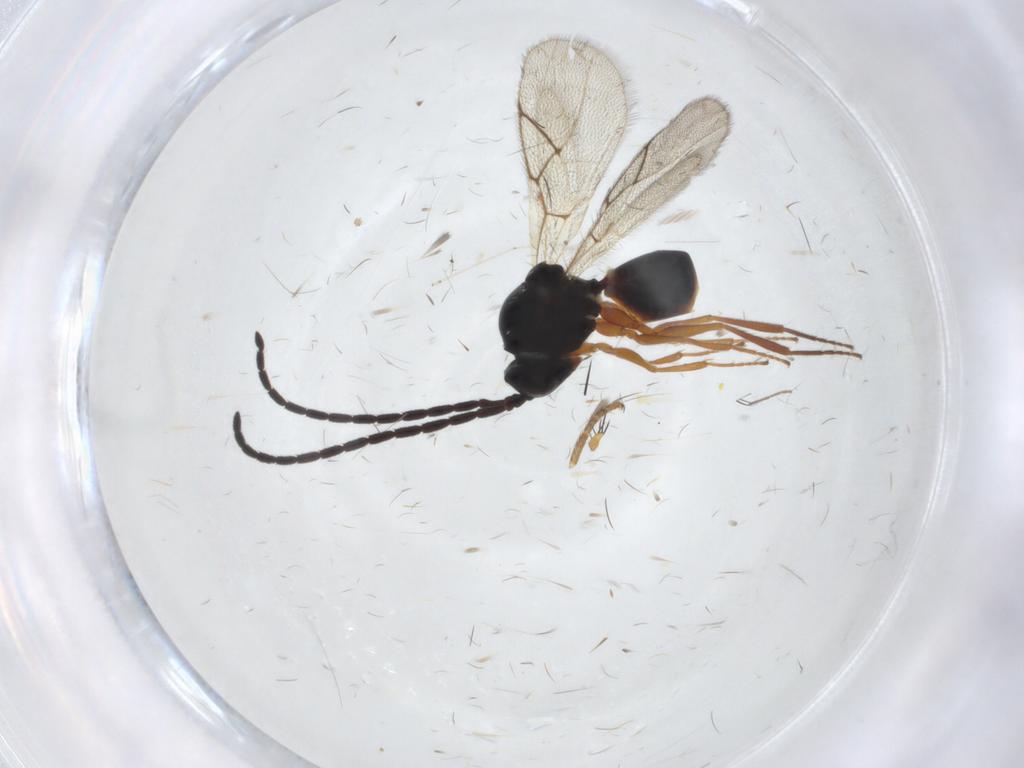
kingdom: Animalia
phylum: Arthropoda
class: Insecta
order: Hymenoptera
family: Figitidae
